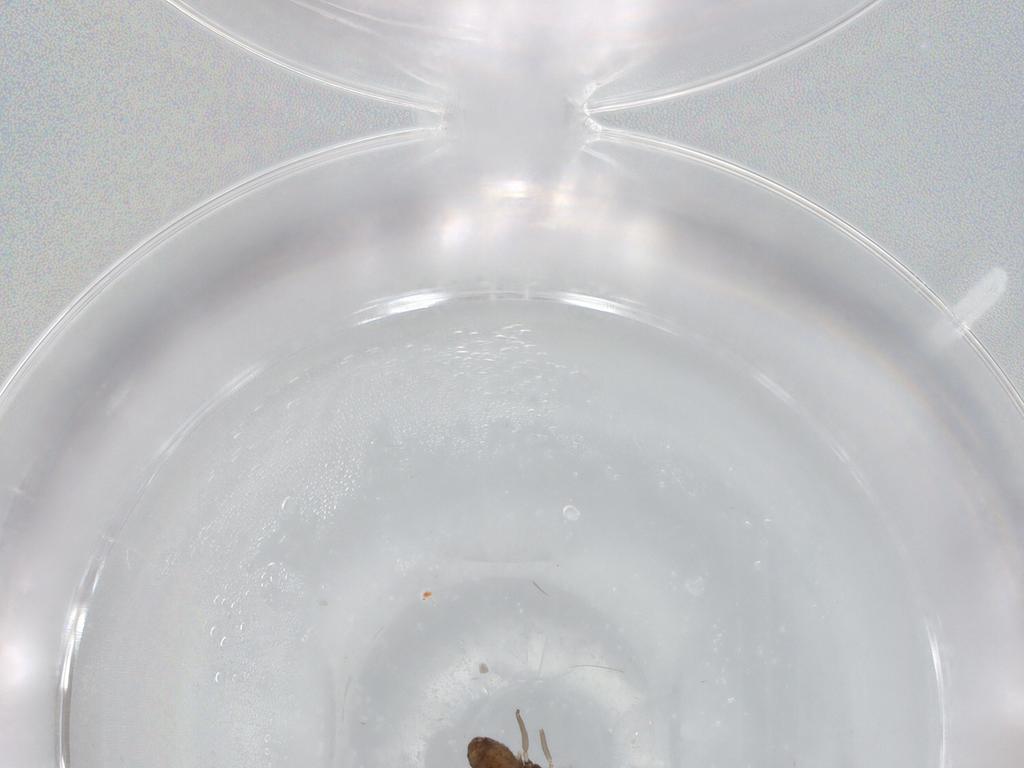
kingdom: Animalia
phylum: Arthropoda
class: Insecta
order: Diptera
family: Chironomidae
